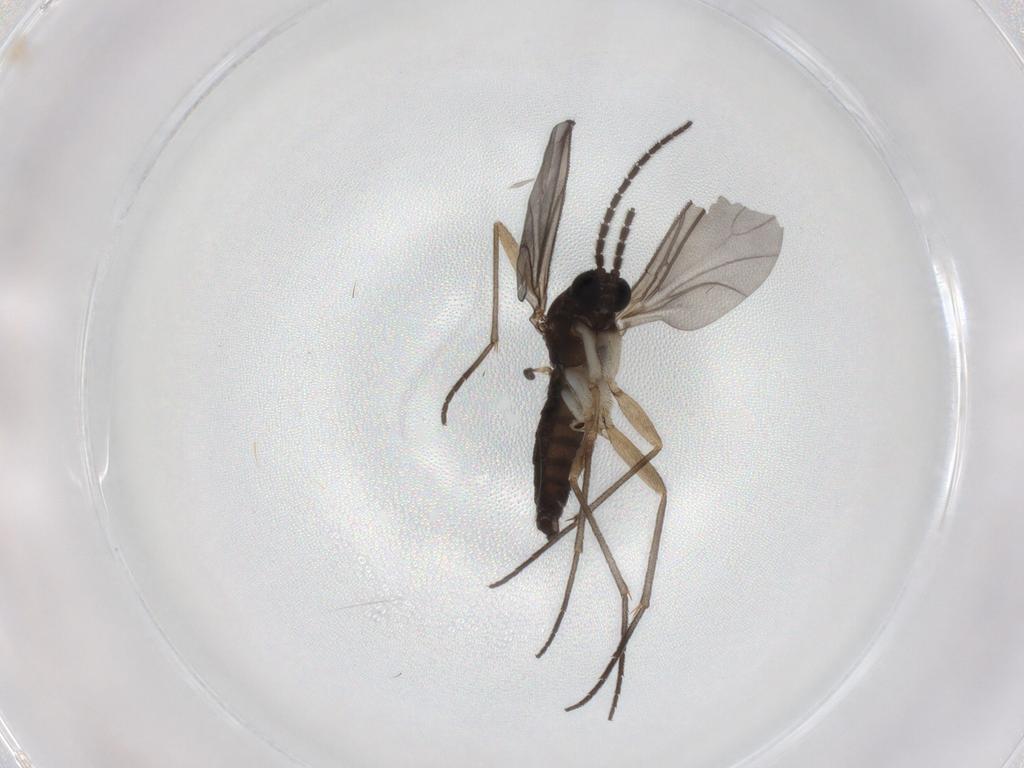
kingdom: Animalia
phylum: Arthropoda
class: Insecta
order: Diptera
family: Sciaridae
